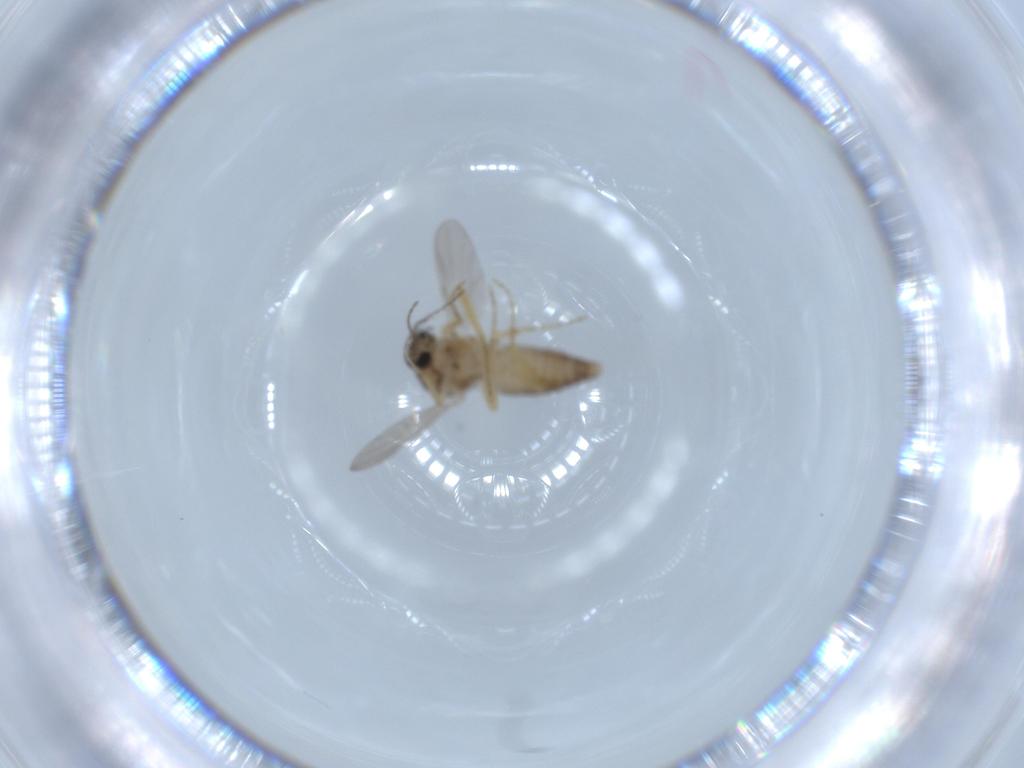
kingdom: Animalia
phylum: Arthropoda
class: Insecta
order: Diptera
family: Ceratopogonidae
